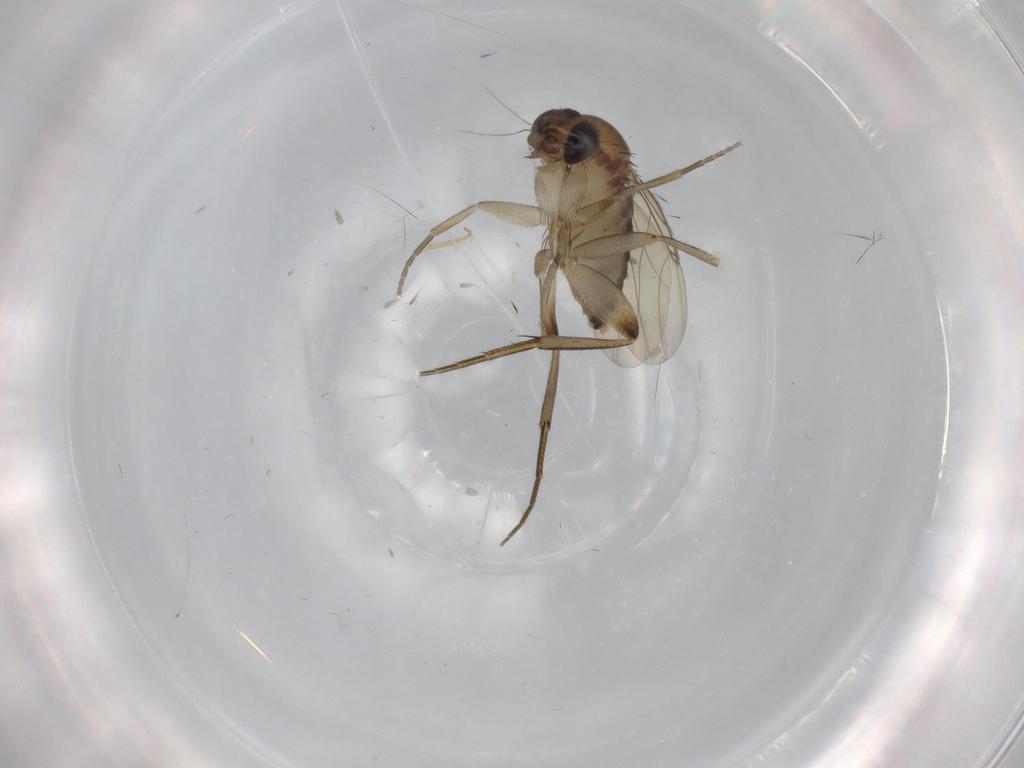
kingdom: Animalia
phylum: Arthropoda
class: Insecta
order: Diptera
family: Phoridae
